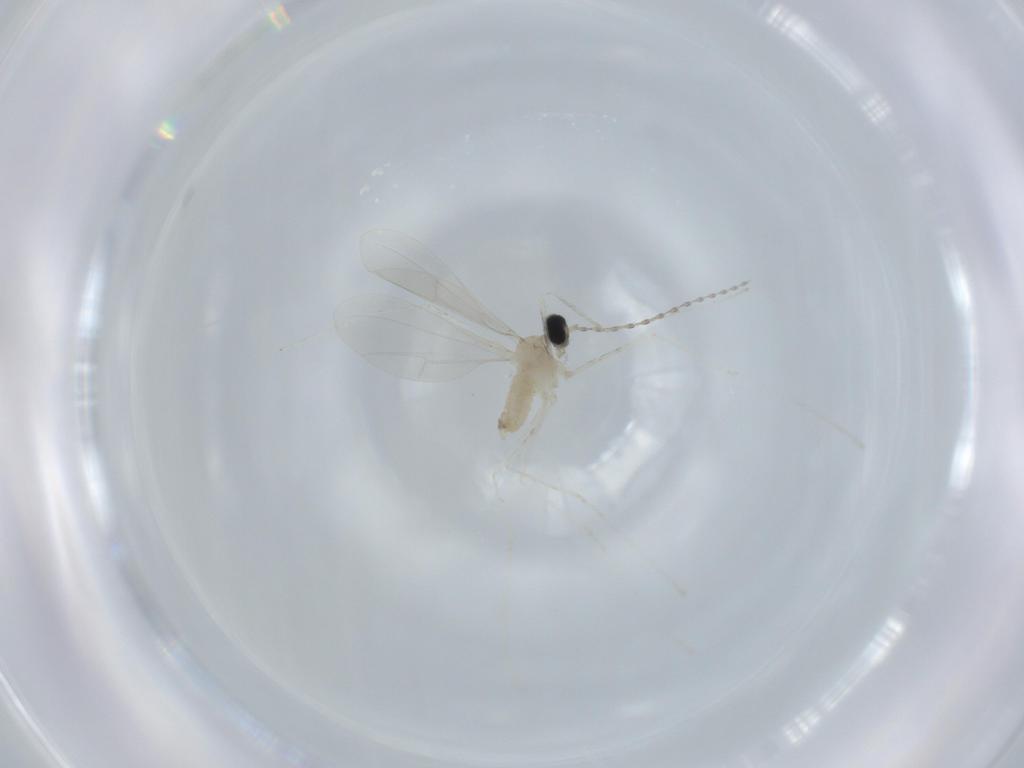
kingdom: Animalia
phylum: Arthropoda
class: Insecta
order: Diptera
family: Cecidomyiidae
